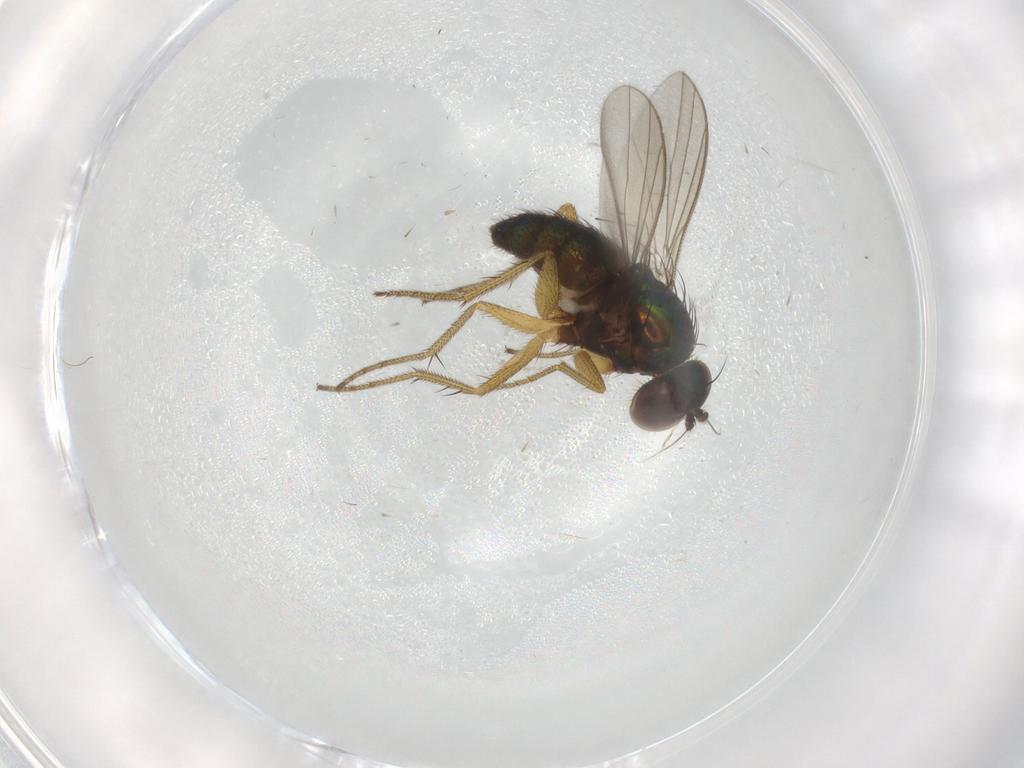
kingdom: Animalia
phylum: Arthropoda
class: Insecta
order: Diptera
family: Dolichopodidae
